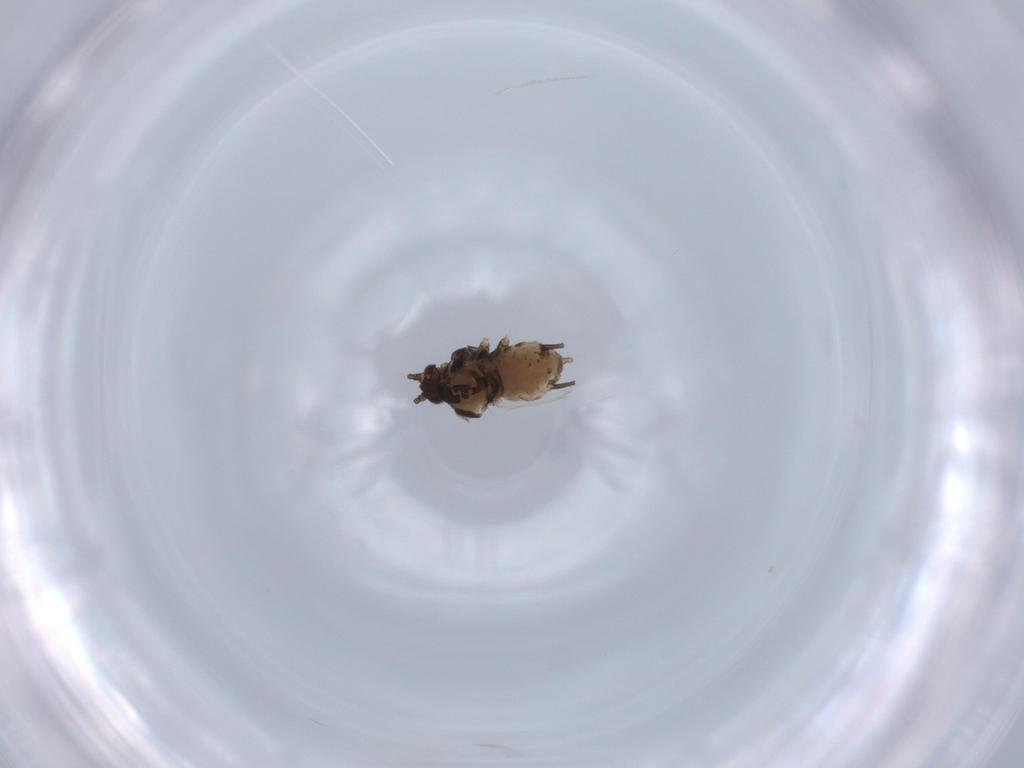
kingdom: Animalia
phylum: Arthropoda
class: Insecta
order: Hemiptera
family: Aphididae
